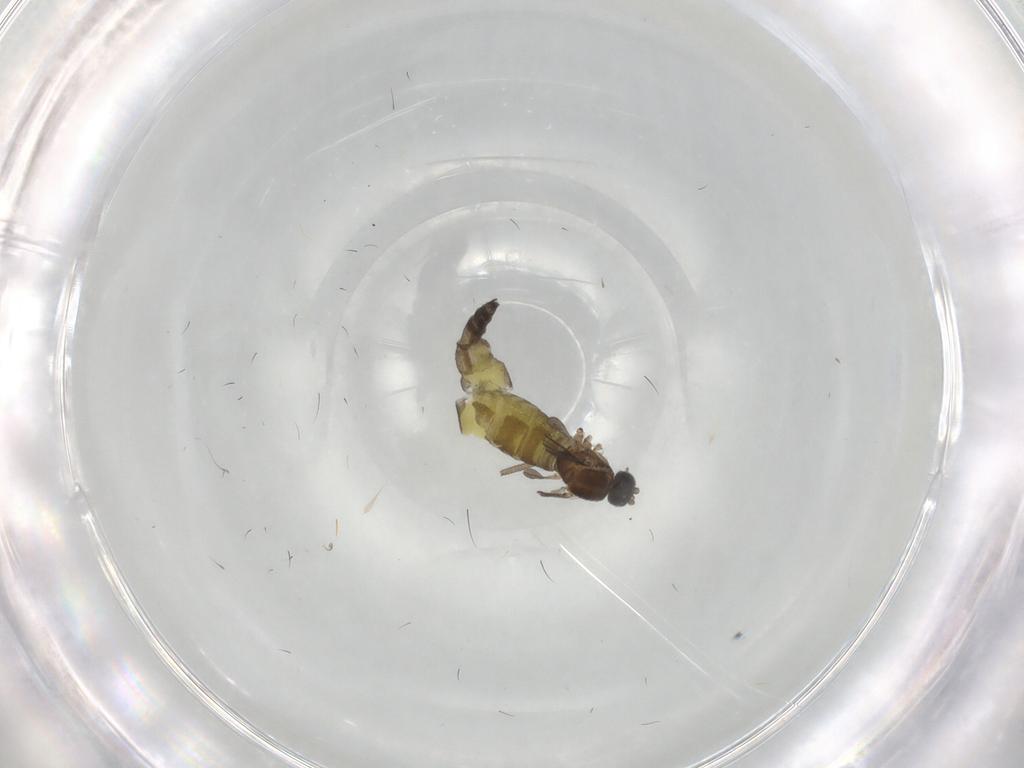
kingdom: Animalia
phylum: Arthropoda
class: Insecta
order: Diptera
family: Sciaridae
